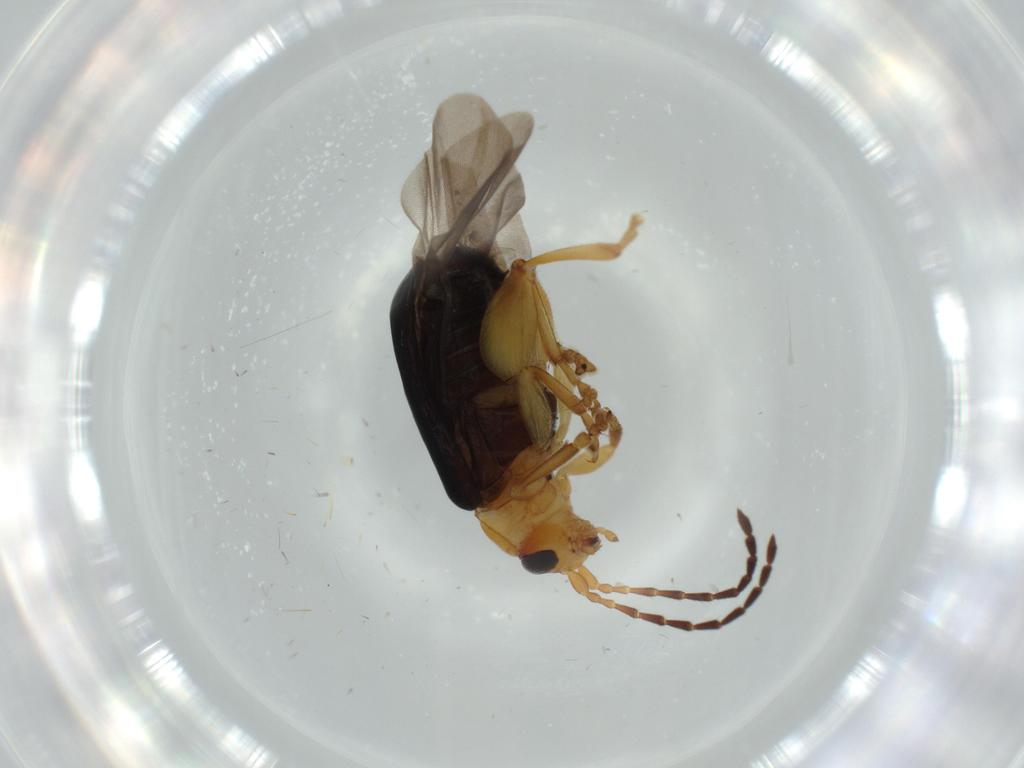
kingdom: Animalia
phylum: Arthropoda
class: Insecta
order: Coleoptera
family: Chrysomelidae
